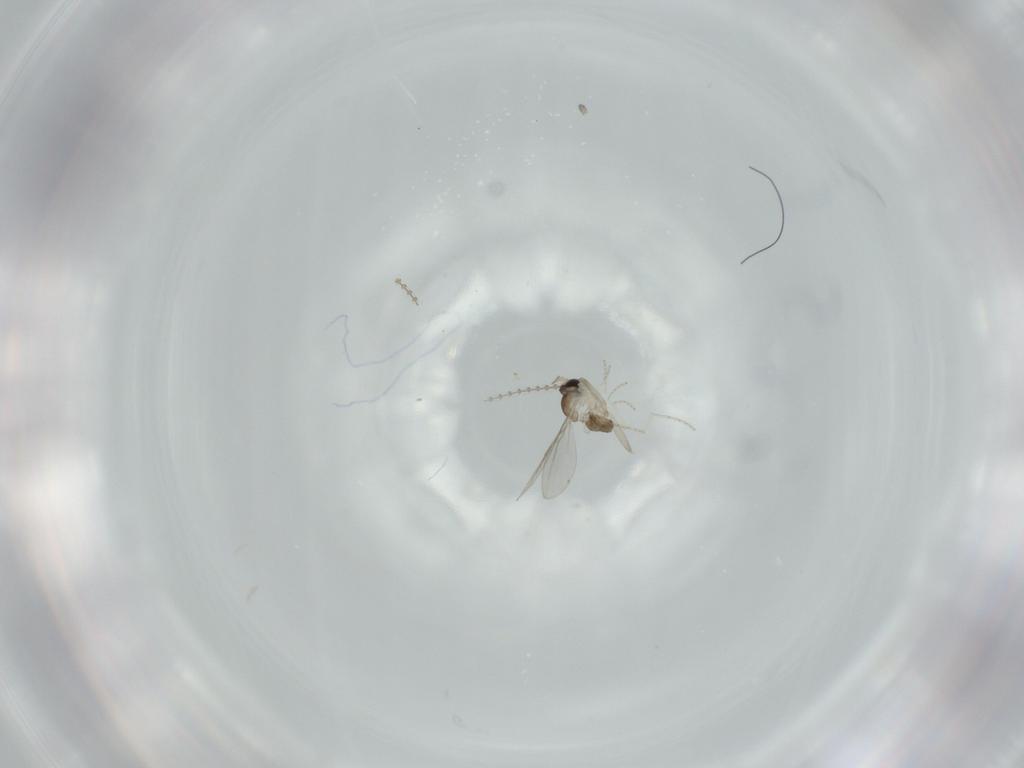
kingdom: Animalia
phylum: Arthropoda
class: Insecta
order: Diptera
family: Cecidomyiidae
